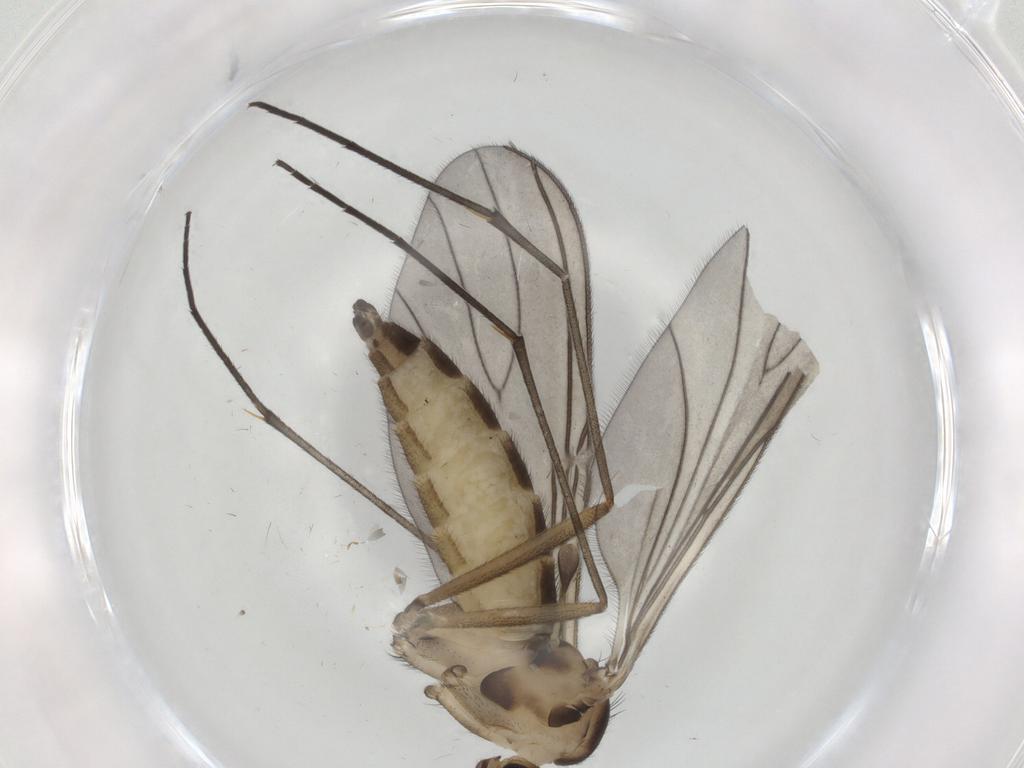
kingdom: Animalia
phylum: Arthropoda
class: Insecta
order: Diptera
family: Sciaridae
